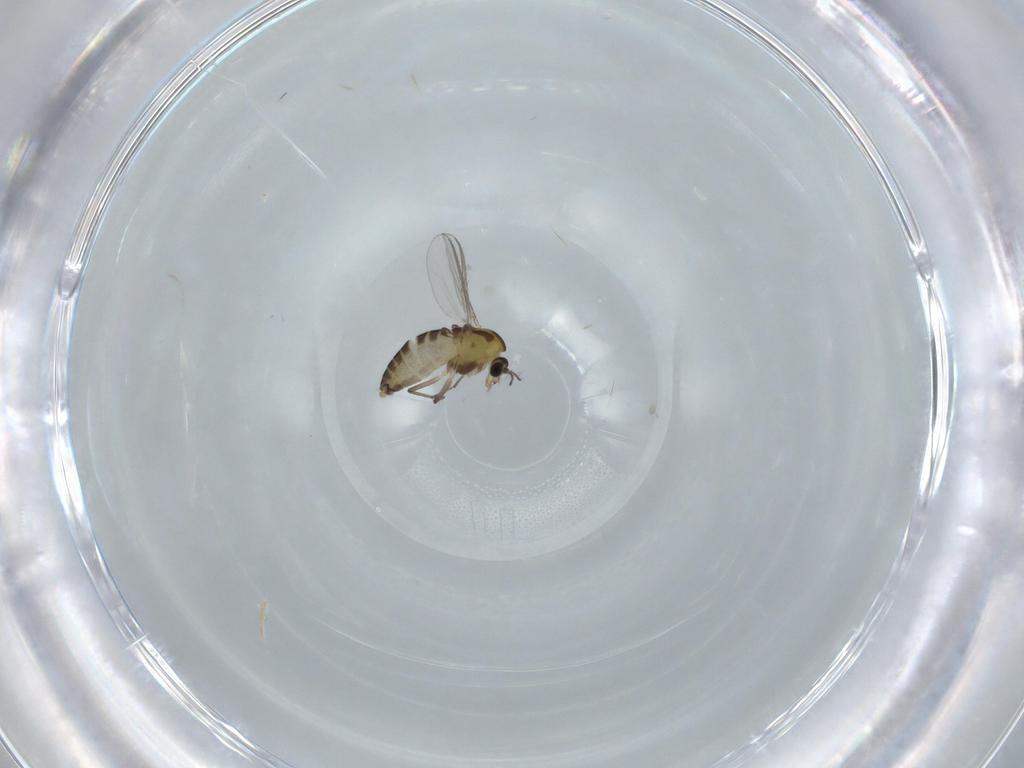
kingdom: Animalia
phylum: Arthropoda
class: Insecta
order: Diptera
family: Chironomidae
